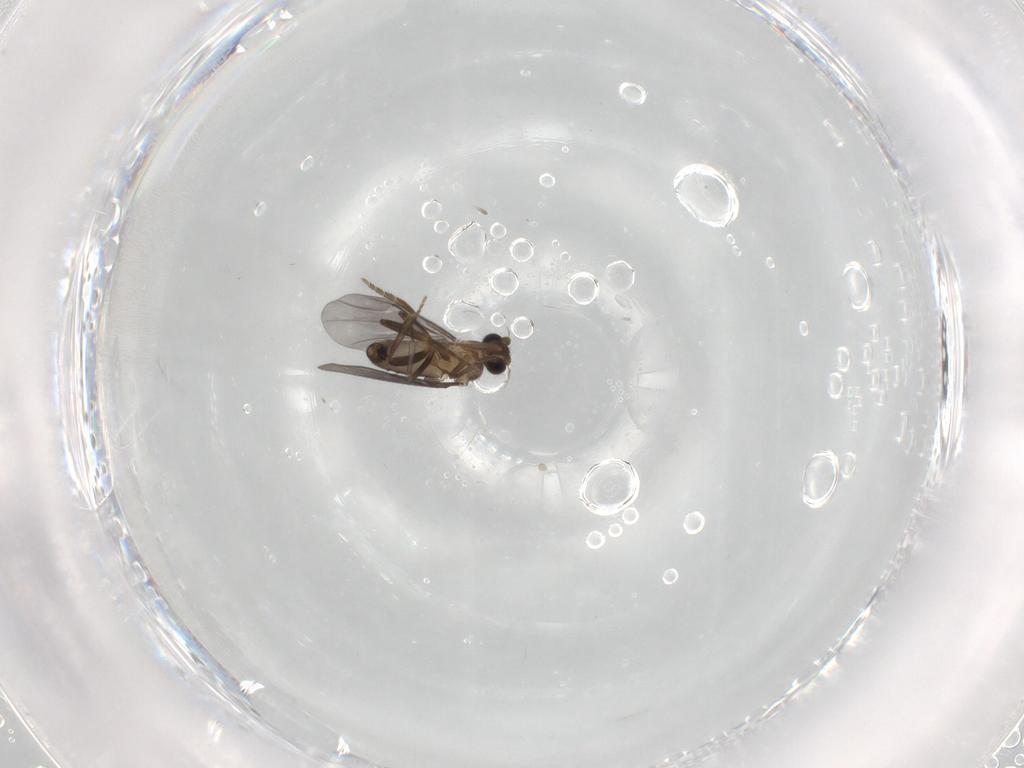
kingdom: Animalia
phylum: Arthropoda
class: Insecta
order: Diptera
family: Phoridae
